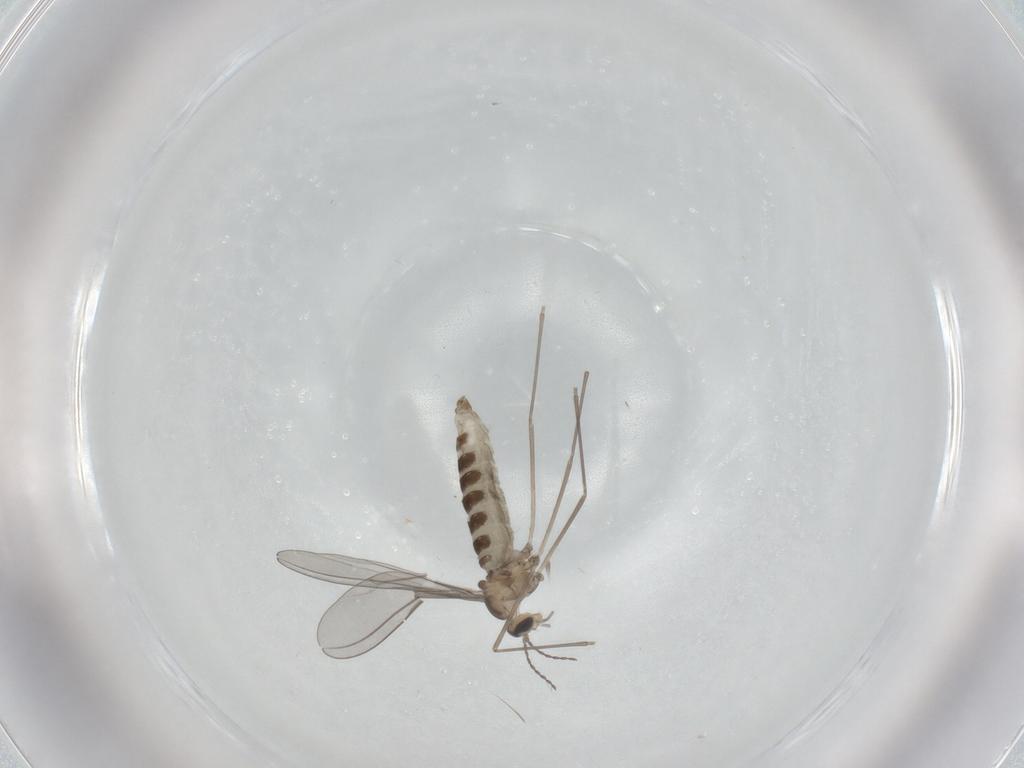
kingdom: Animalia
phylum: Arthropoda
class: Insecta
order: Diptera
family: Cecidomyiidae
